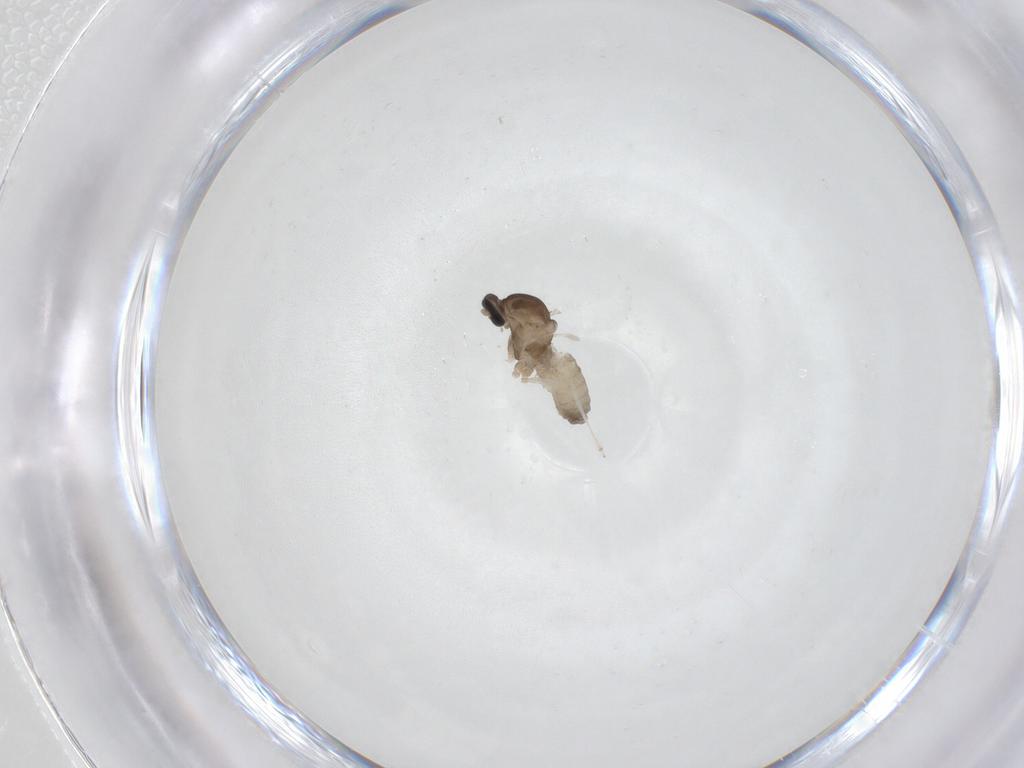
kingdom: Animalia
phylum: Arthropoda
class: Insecta
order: Diptera
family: Cecidomyiidae
